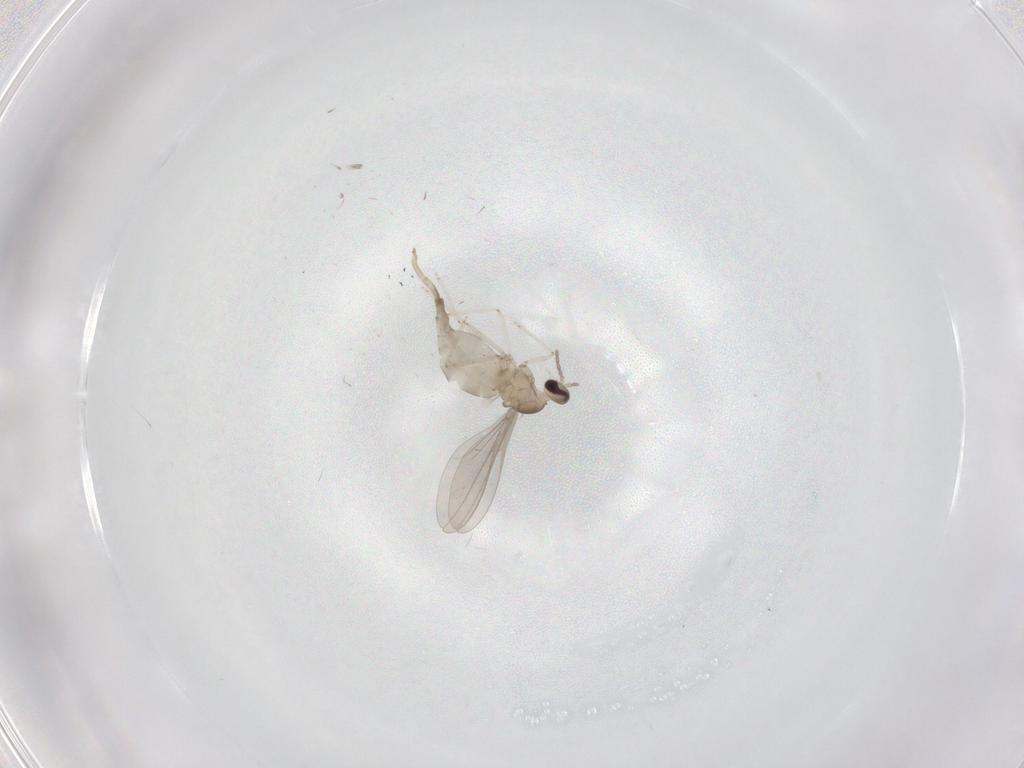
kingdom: Animalia
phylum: Arthropoda
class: Insecta
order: Diptera
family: Cecidomyiidae
